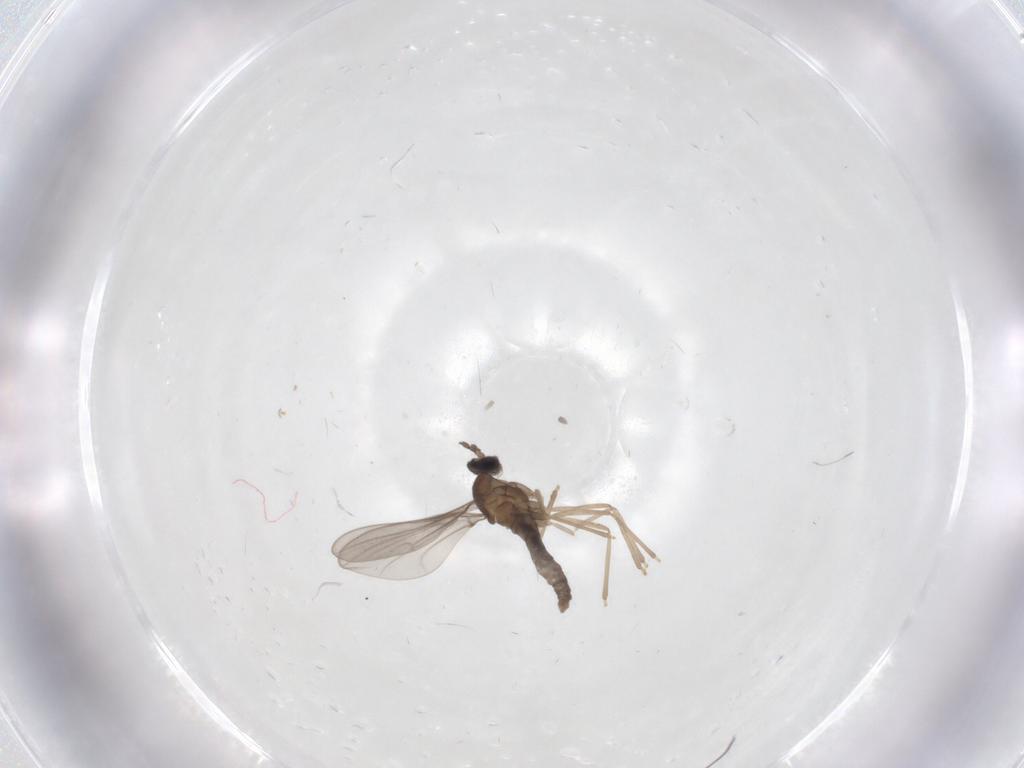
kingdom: Animalia
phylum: Arthropoda
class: Insecta
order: Diptera
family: Cecidomyiidae
